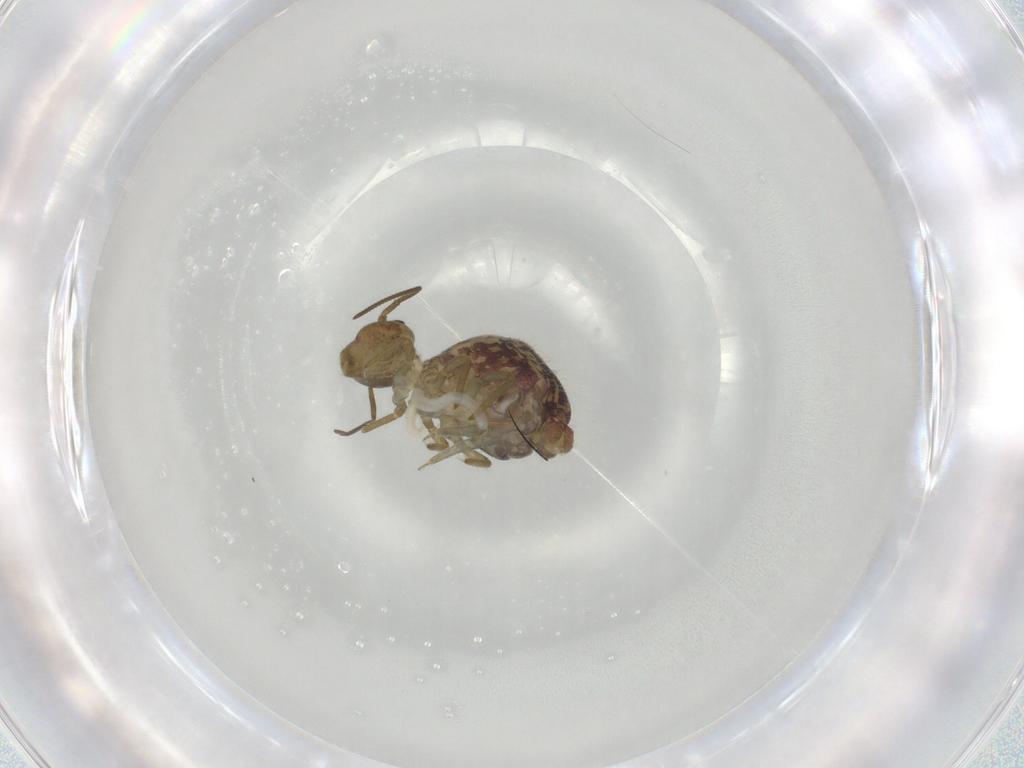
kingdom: Animalia
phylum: Arthropoda
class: Collembola
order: Symphypleona
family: Sminthuridae
